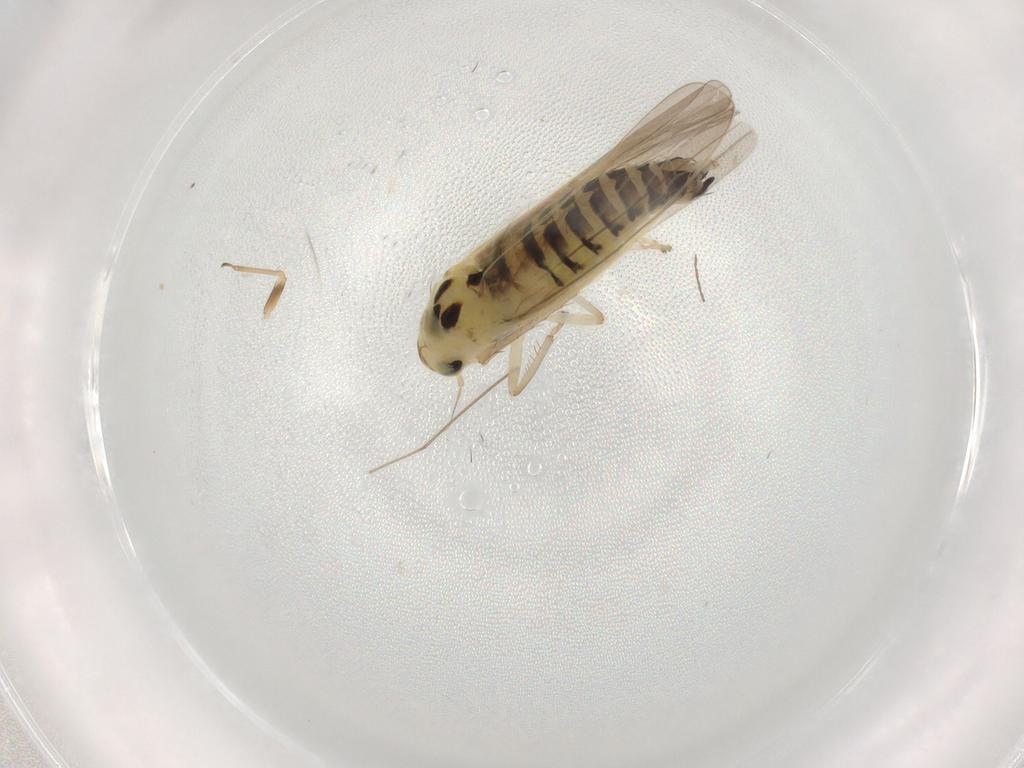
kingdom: Animalia
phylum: Arthropoda
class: Insecta
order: Hemiptera
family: Cicadellidae
